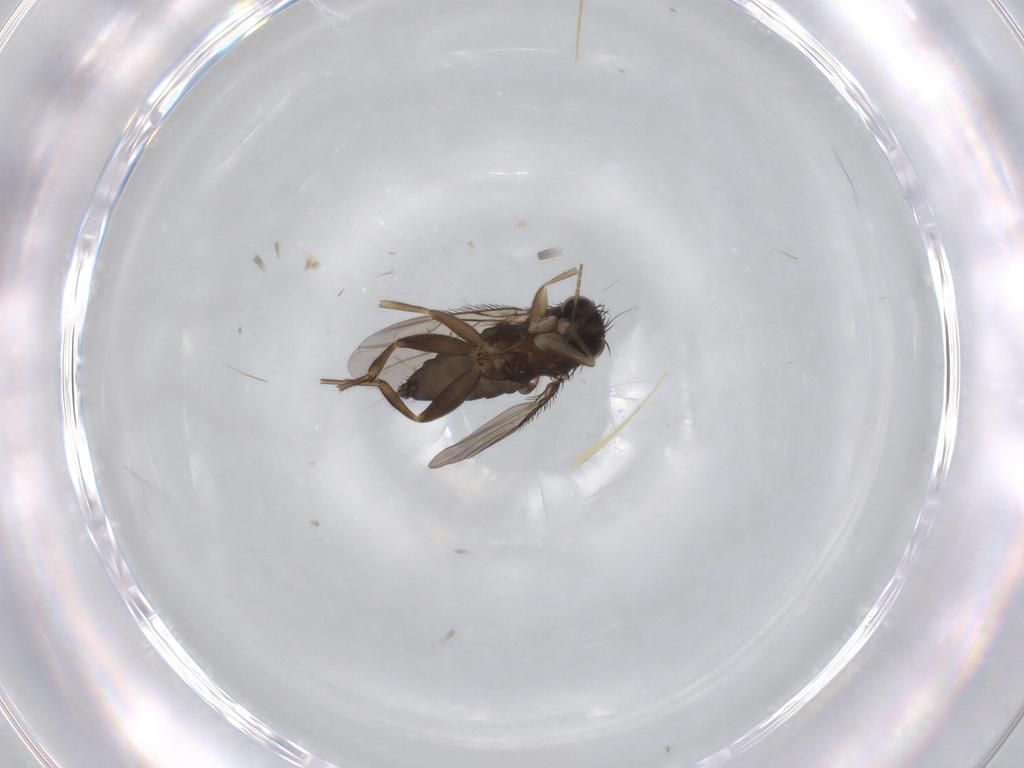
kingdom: Animalia
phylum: Arthropoda
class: Insecta
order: Diptera
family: Phoridae
